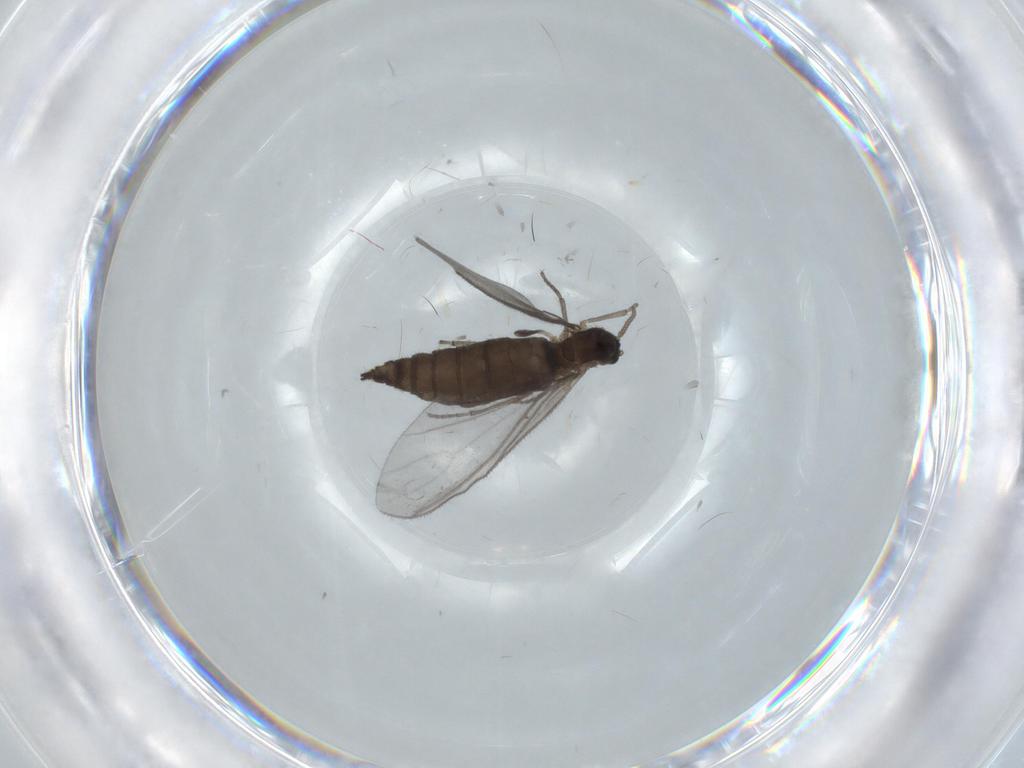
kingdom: Animalia
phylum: Arthropoda
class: Insecta
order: Diptera
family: Sciaridae
